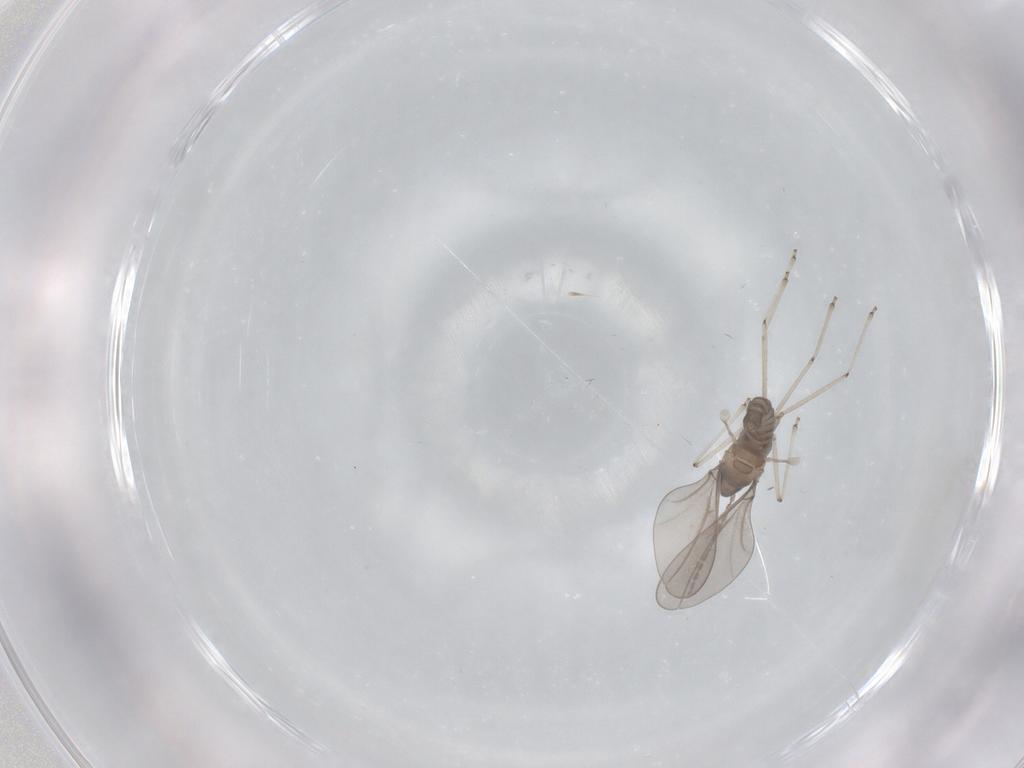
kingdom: Animalia
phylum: Arthropoda
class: Insecta
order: Diptera
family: Cecidomyiidae
